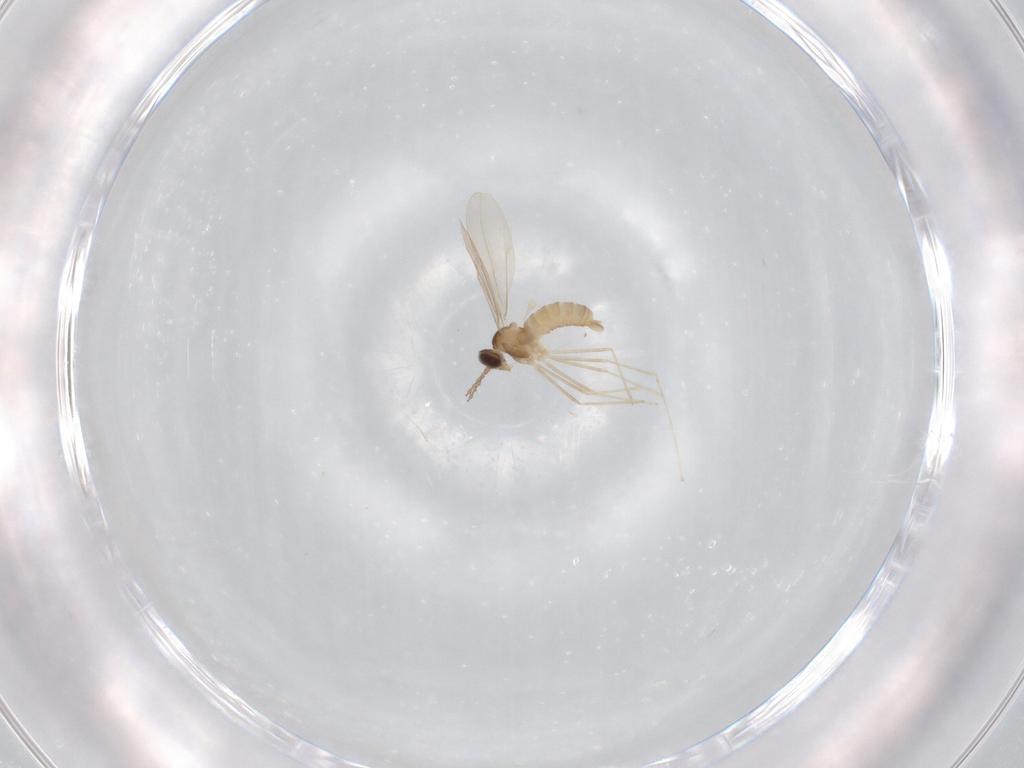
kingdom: Animalia
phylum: Arthropoda
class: Insecta
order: Diptera
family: Cecidomyiidae
